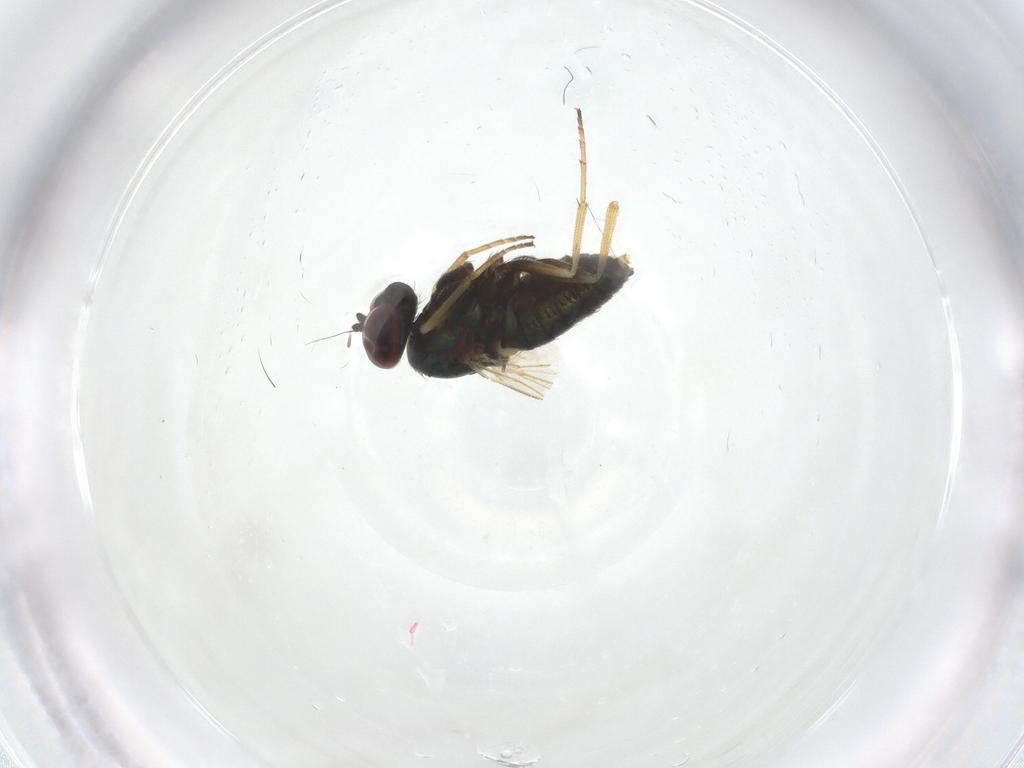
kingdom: Animalia
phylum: Arthropoda
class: Insecta
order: Diptera
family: Dolichopodidae
